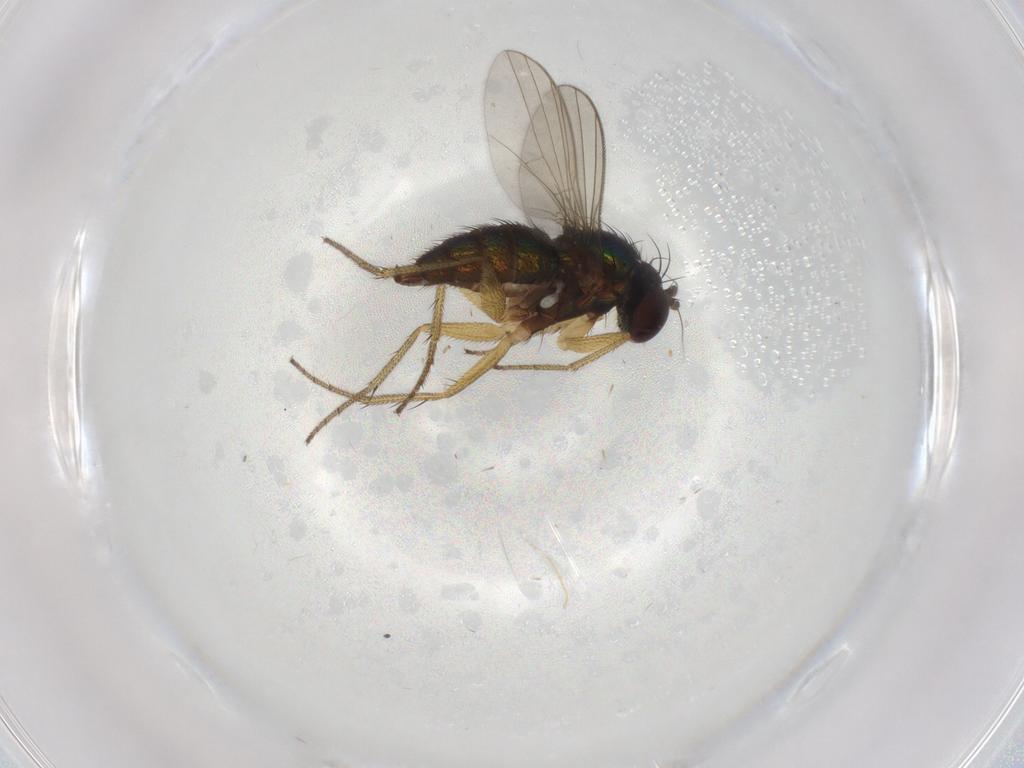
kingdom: Animalia
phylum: Arthropoda
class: Insecta
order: Diptera
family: Dolichopodidae
